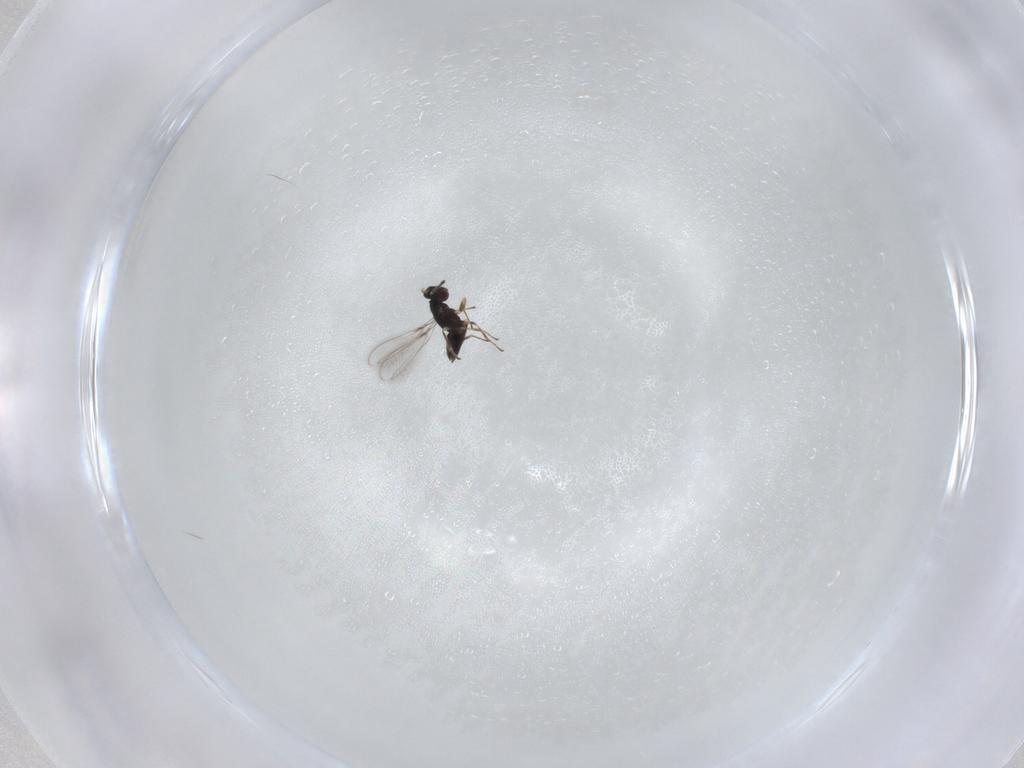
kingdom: Animalia
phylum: Arthropoda
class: Insecta
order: Hymenoptera
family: Mymaridae
